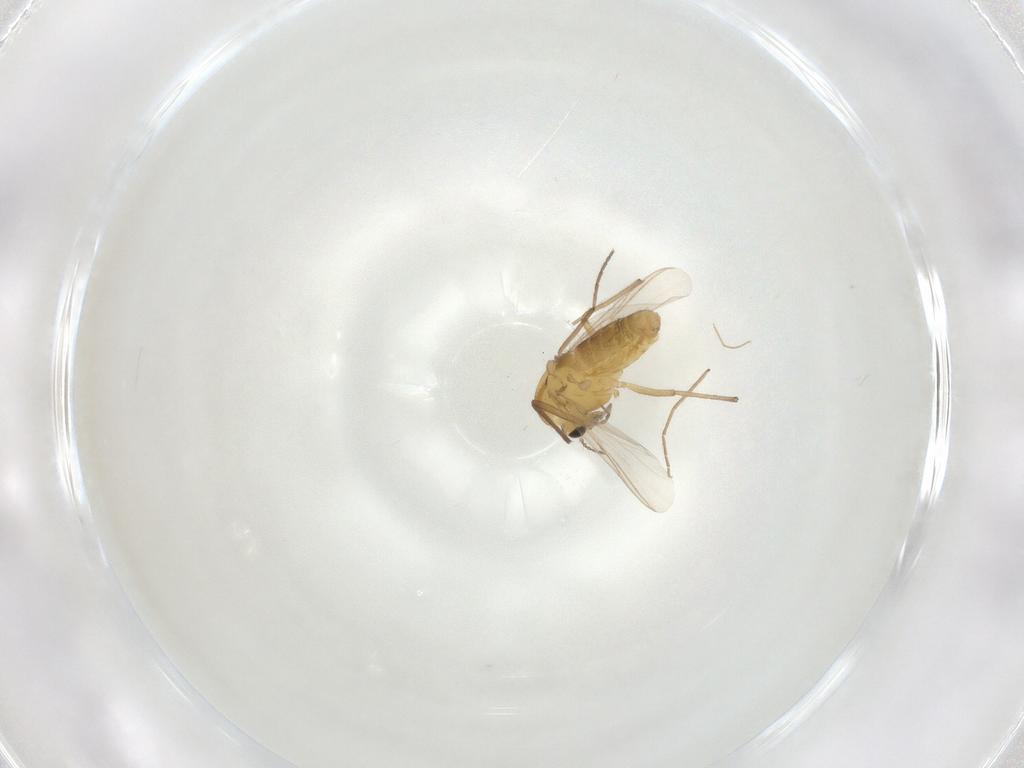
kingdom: Animalia
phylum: Arthropoda
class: Insecta
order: Diptera
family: Chironomidae
